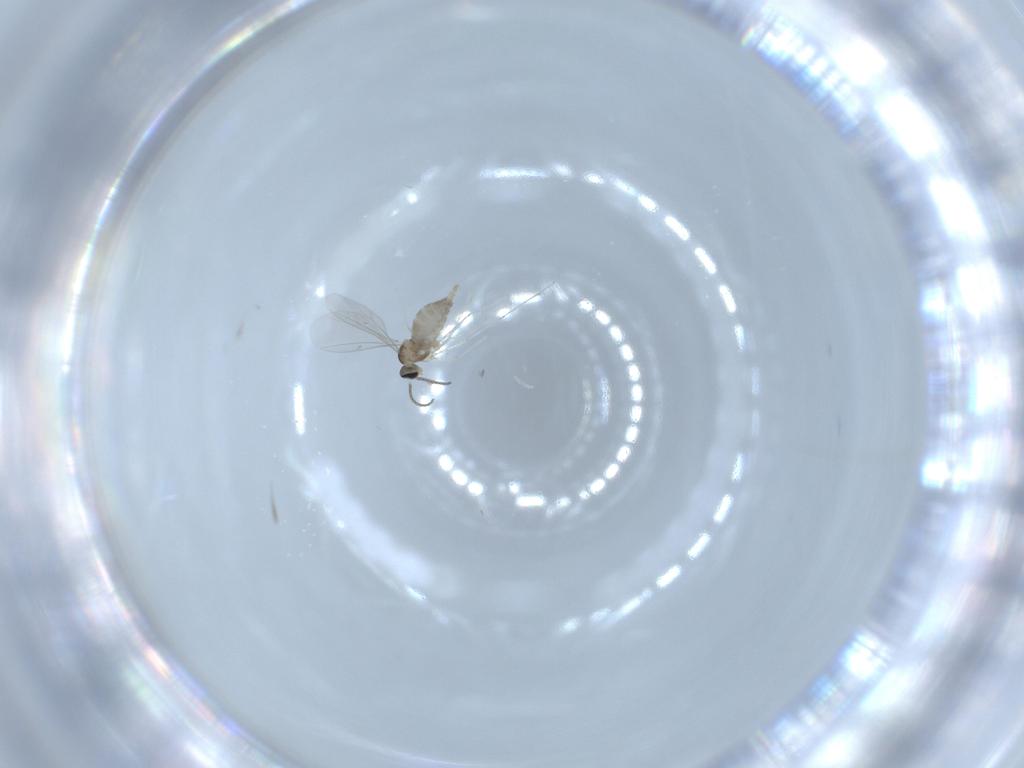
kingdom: Animalia
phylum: Arthropoda
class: Insecta
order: Diptera
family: Cecidomyiidae
